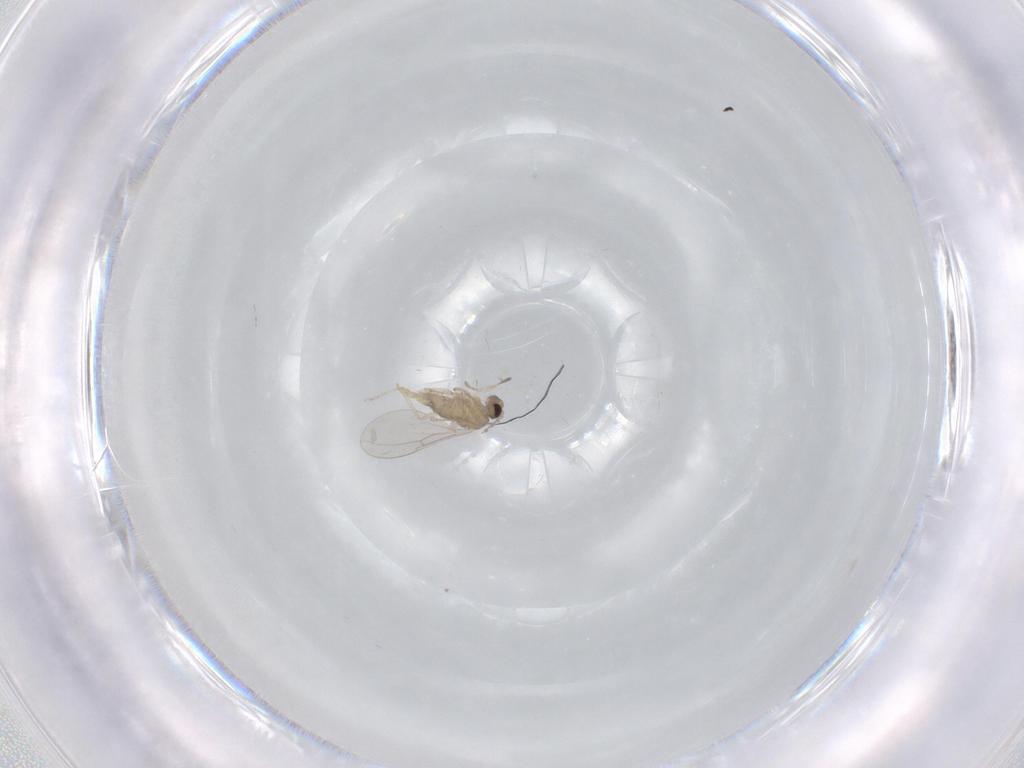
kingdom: Animalia
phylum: Arthropoda
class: Insecta
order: Diptera
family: Cecidomyiidae
